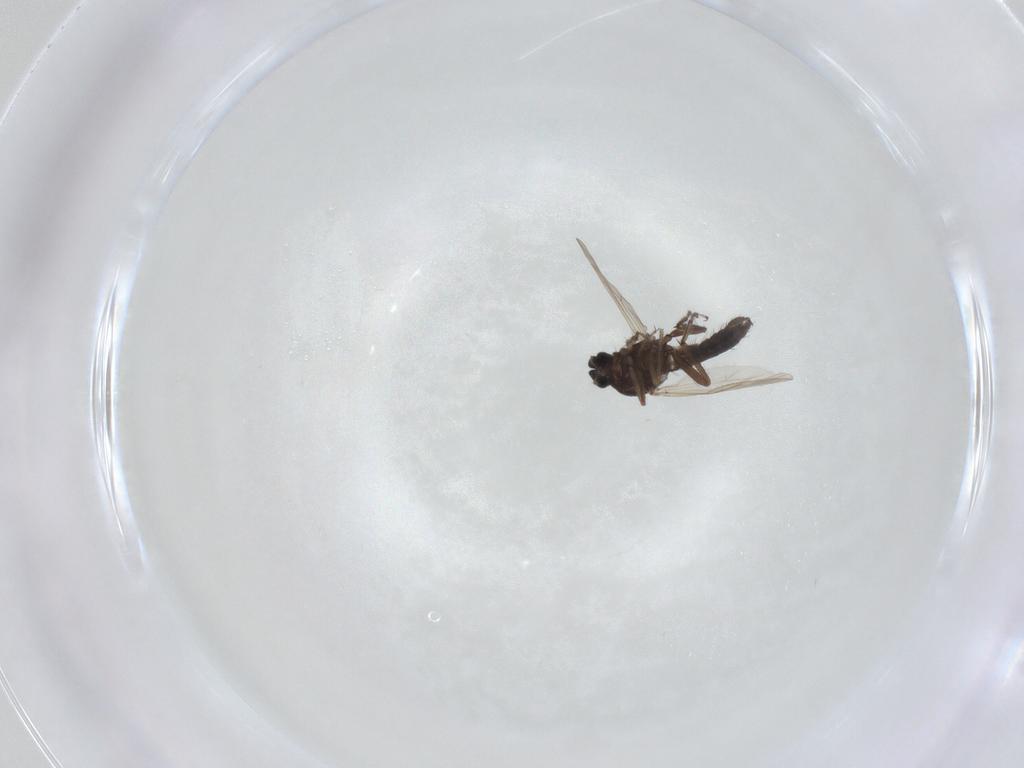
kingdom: Animalia
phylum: Arthropoda
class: Insecta
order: Diptera
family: Ceratopogonidae
